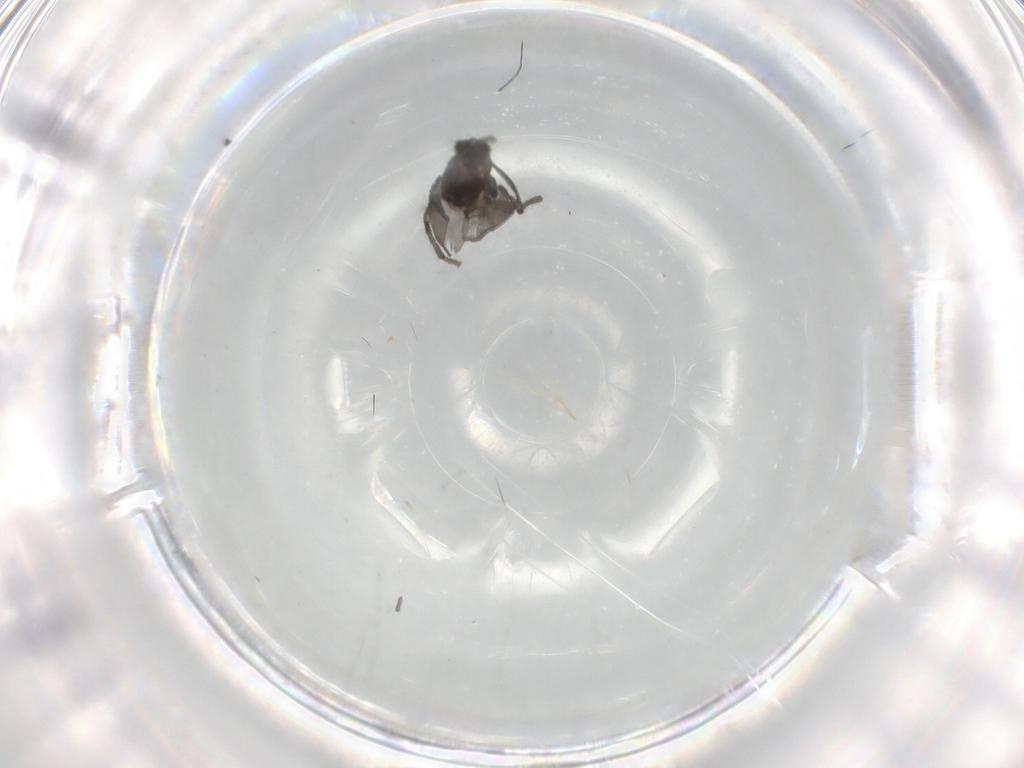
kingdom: Animalia
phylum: Arthropoda
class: Insecta
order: Diptera
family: Chironomidae
